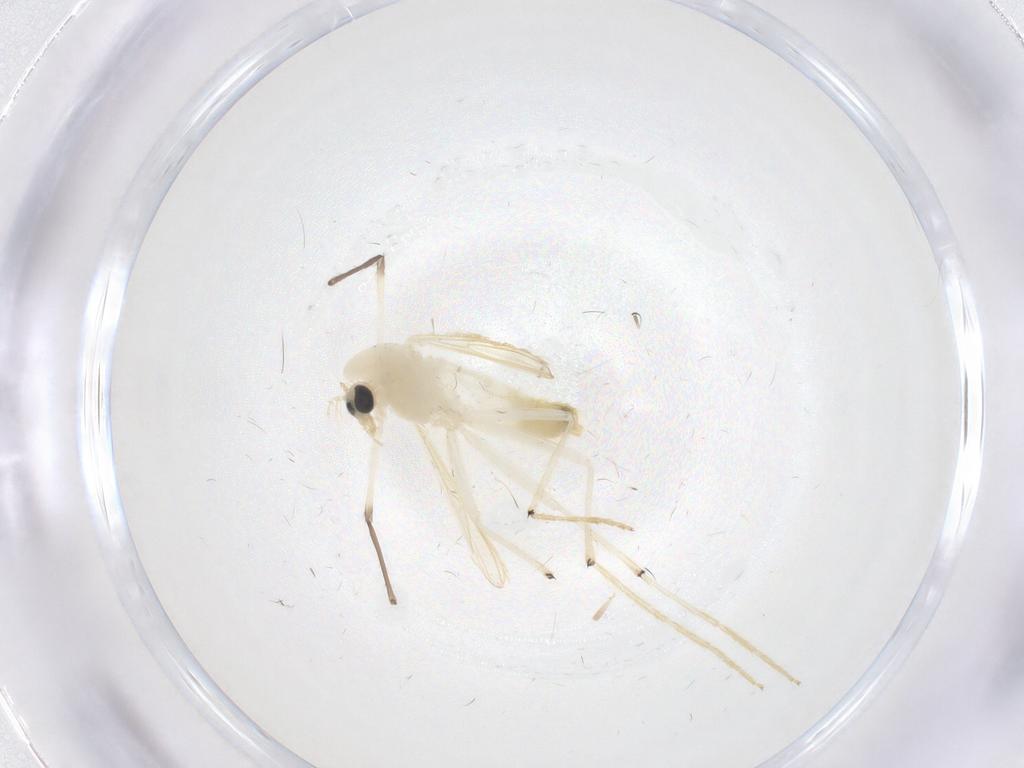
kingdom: Animalia
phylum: Arthropoda
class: Insecta
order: Diptera
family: Chironomidae
